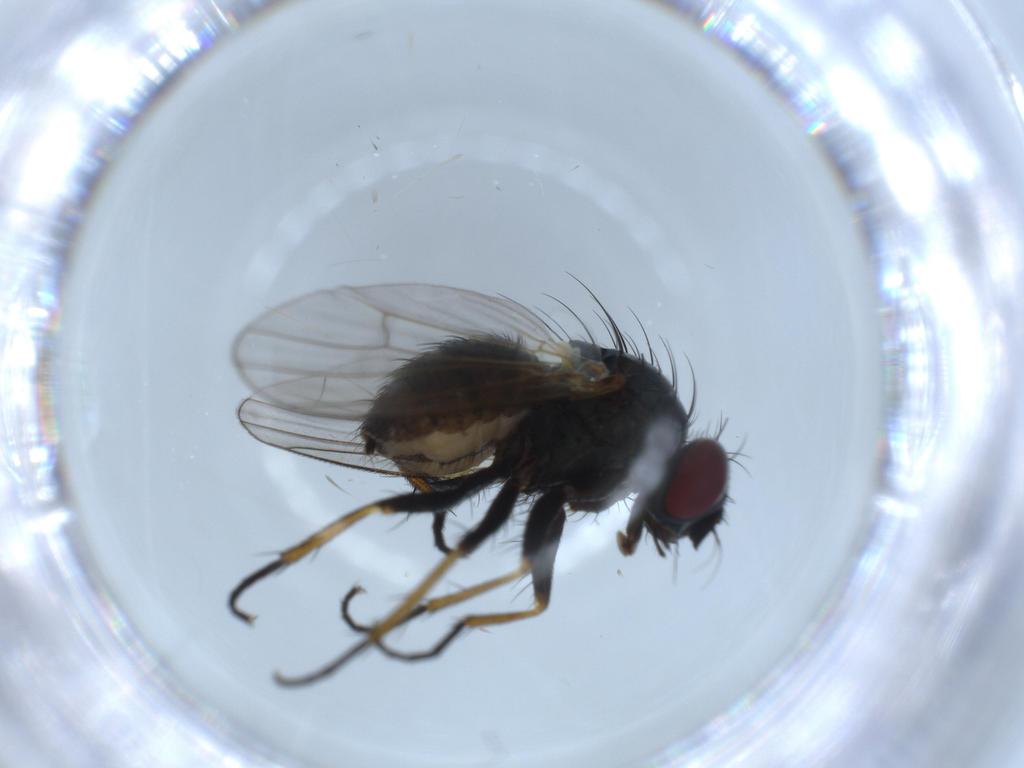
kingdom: Animalia
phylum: Arthropoda
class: Insecta
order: Diptera
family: Muscidae
